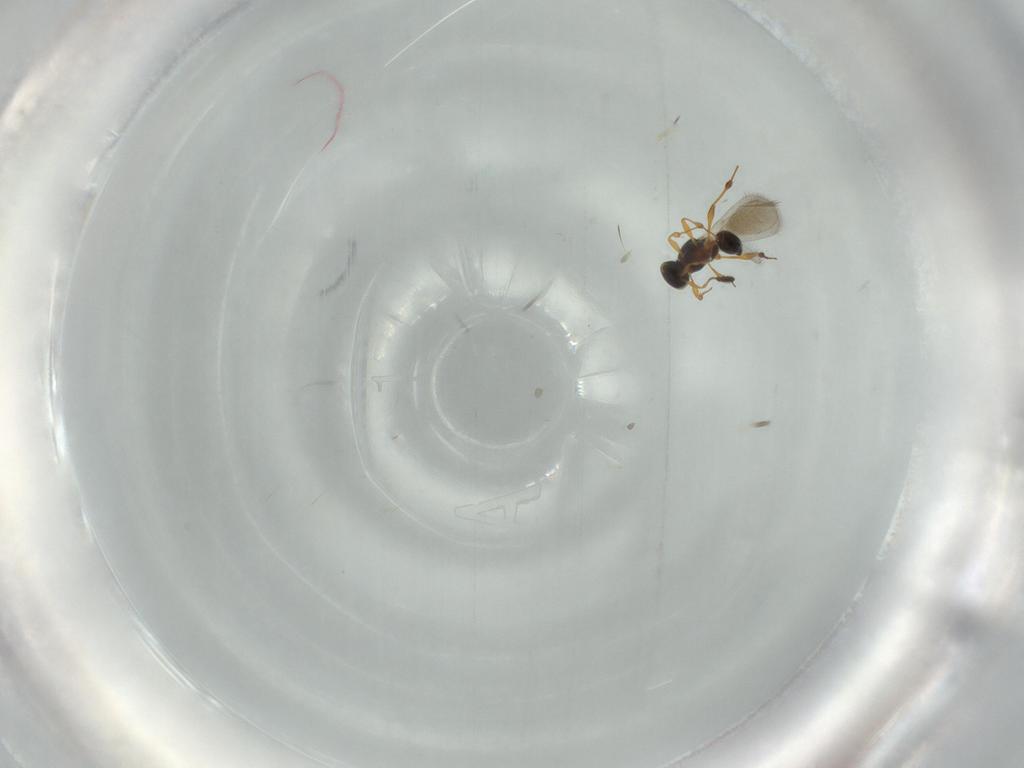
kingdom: Animalia
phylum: Arthropoda
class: Insecta
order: Hymenoptera
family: Platygastridae
